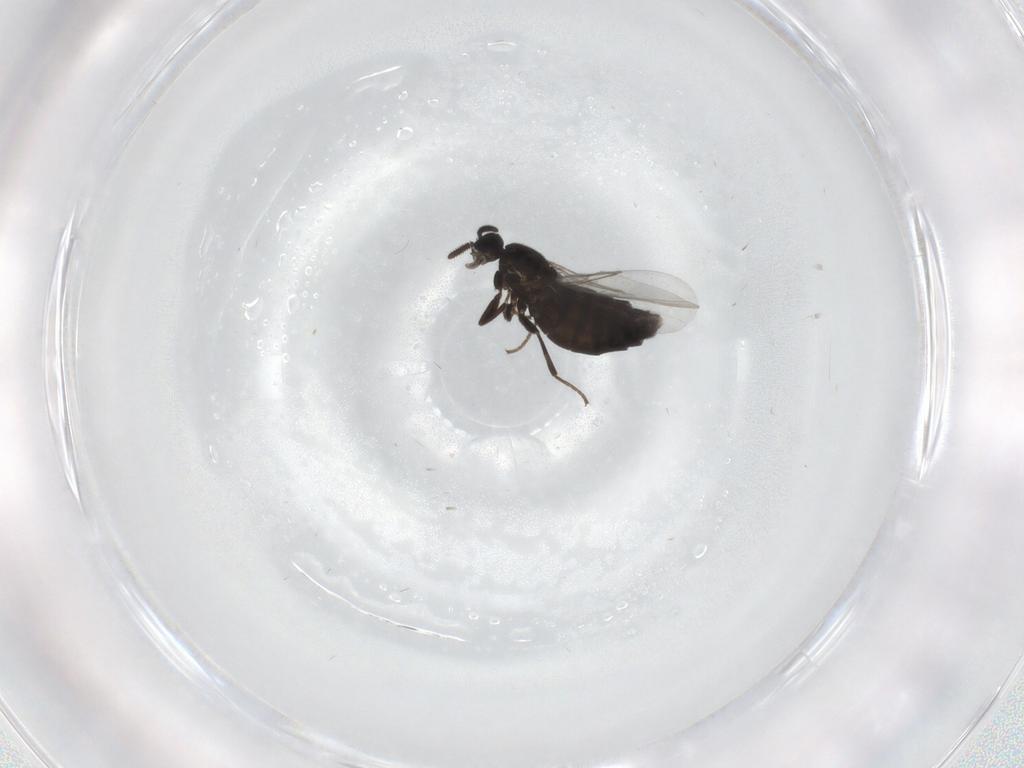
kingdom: Animalia
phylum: Arthropoda
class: Insecta
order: Diptera
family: Scatopsidae
